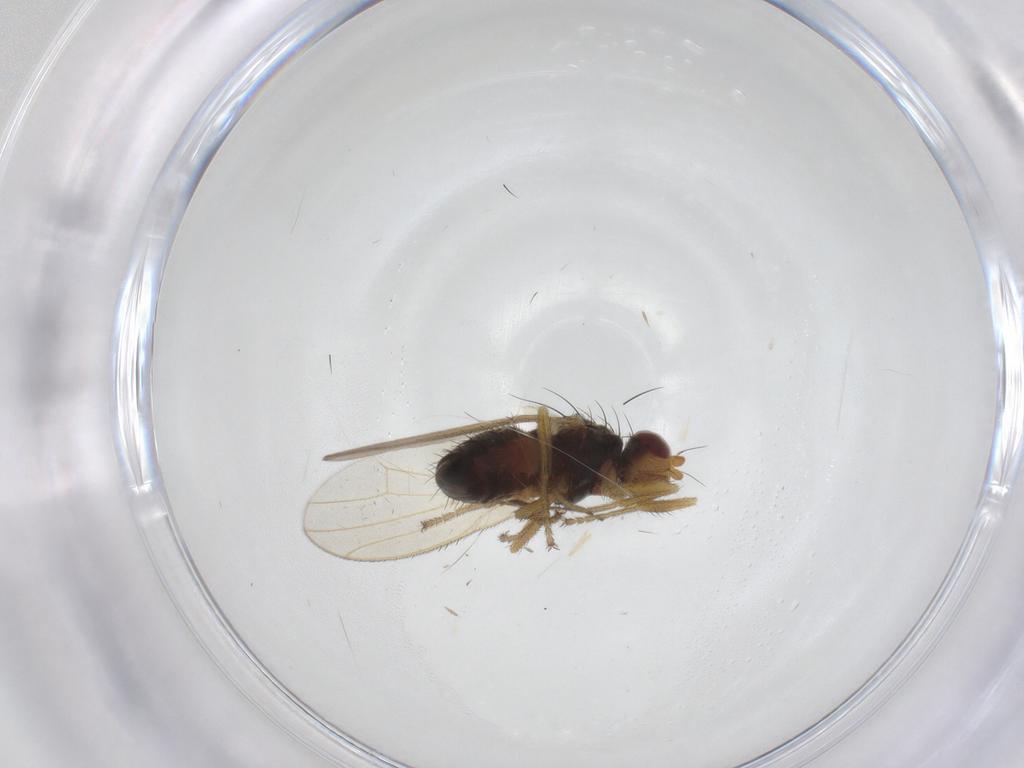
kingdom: Animalia
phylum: Arthropoda
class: Insecta
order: Diptera
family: Heleomyzidae
